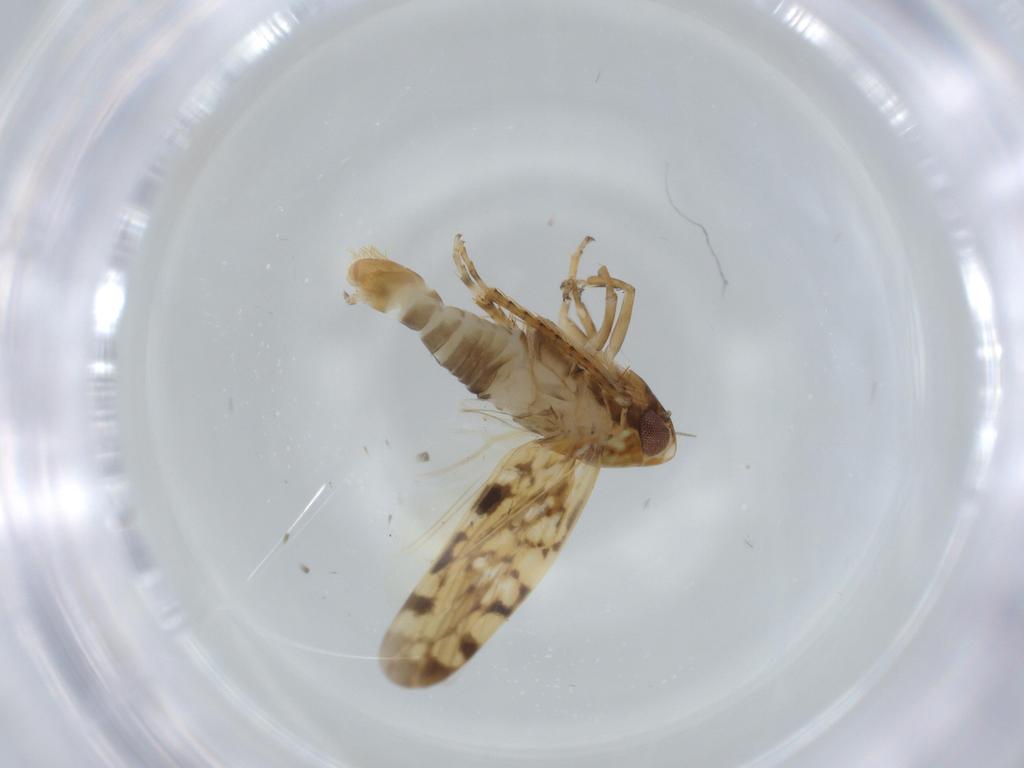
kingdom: Animalia
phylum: Arthropoda
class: Insecta
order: Hemiptera
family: Cicadellidae
